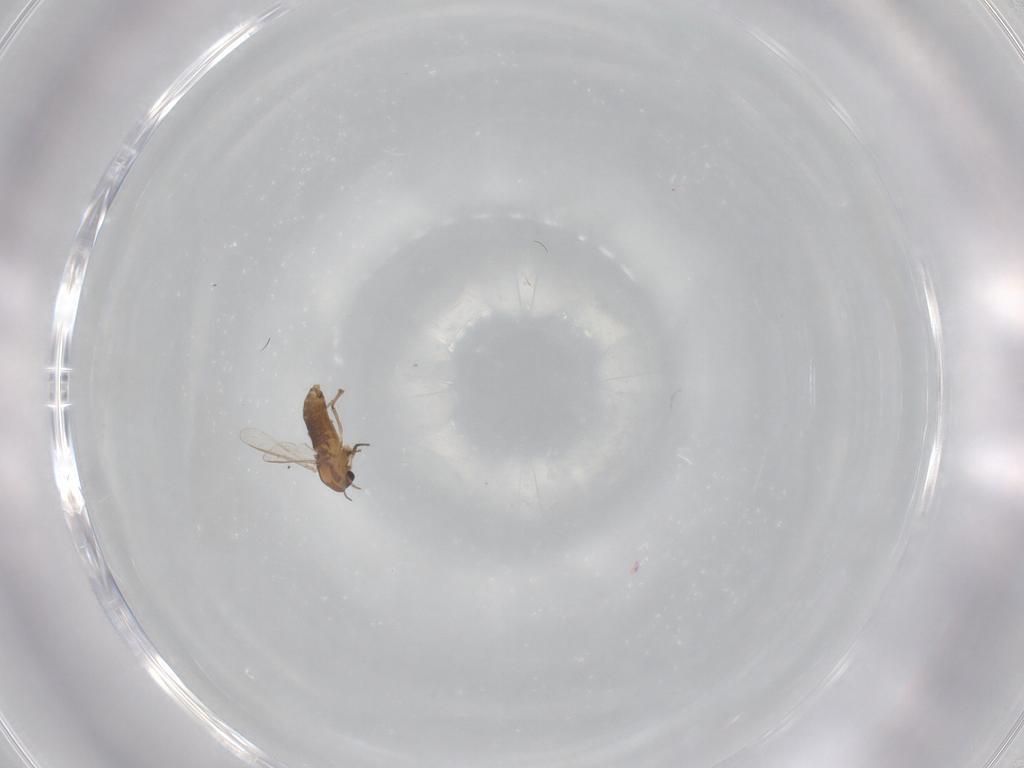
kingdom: Animalia
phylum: Arthropoda
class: Insecta
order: Diptera
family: Chironomidae
